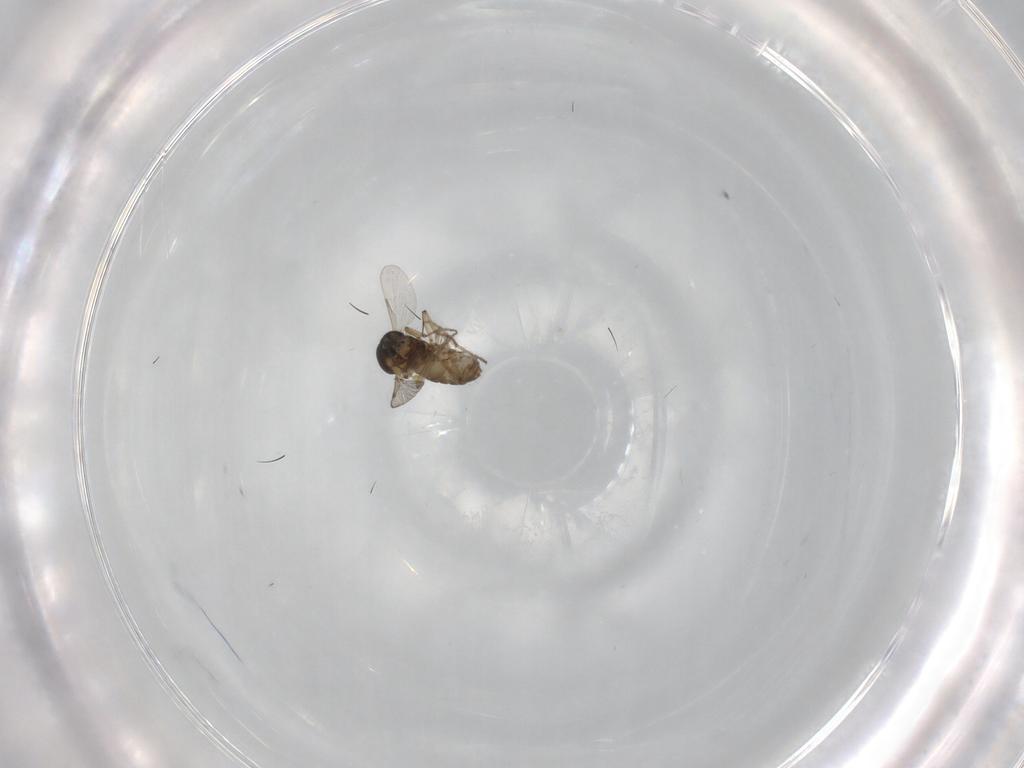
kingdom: Animalia
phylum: Arthropoda
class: Insecta
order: Diptera
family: Ceratopogonidae
